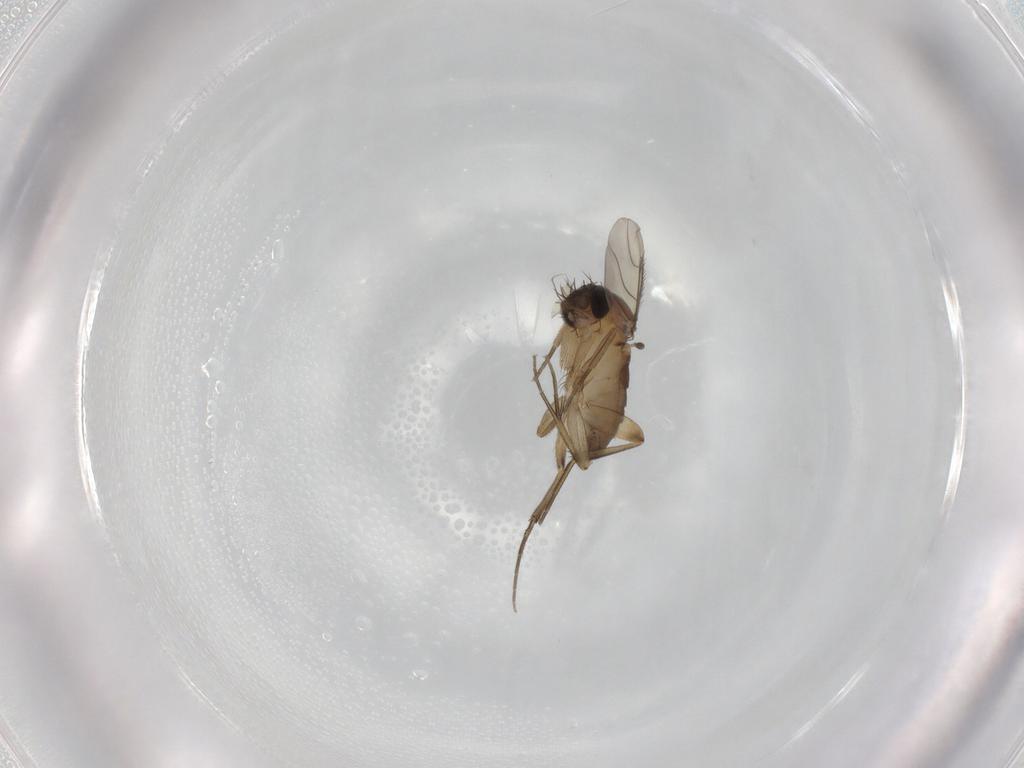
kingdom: Animalia
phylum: Arthropoda
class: Insecta
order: Diptera
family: Phoridae
